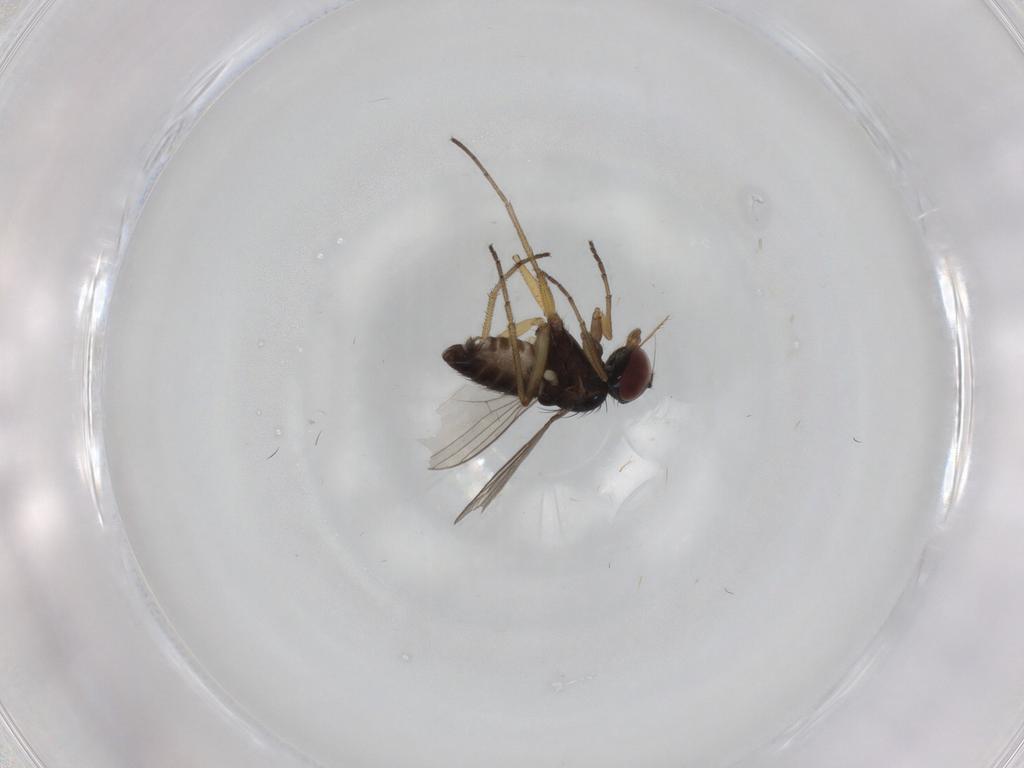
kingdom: Animalia
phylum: Arthropoda
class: Insecta
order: Diptera
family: Dolichopodidae
